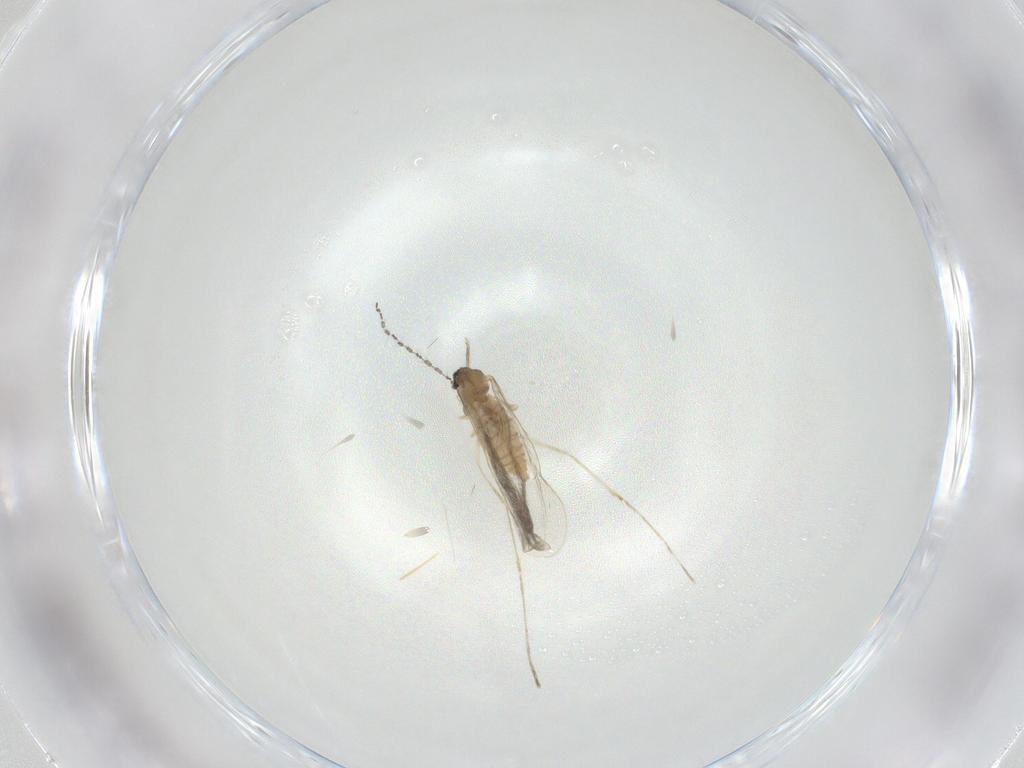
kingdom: Animalia
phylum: Arthropoda
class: Insecta
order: Diptera
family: Cecidomyiidae
